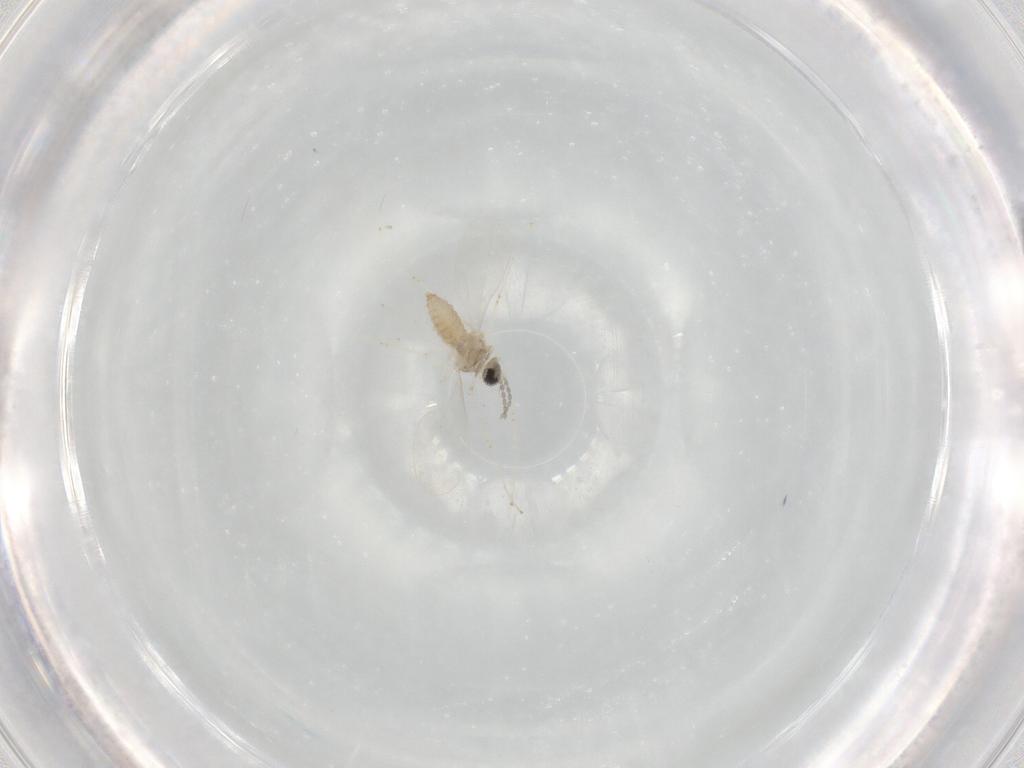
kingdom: Animalia
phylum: Arthropoda
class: Insecta
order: Diptera
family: Cecidomyiidae
